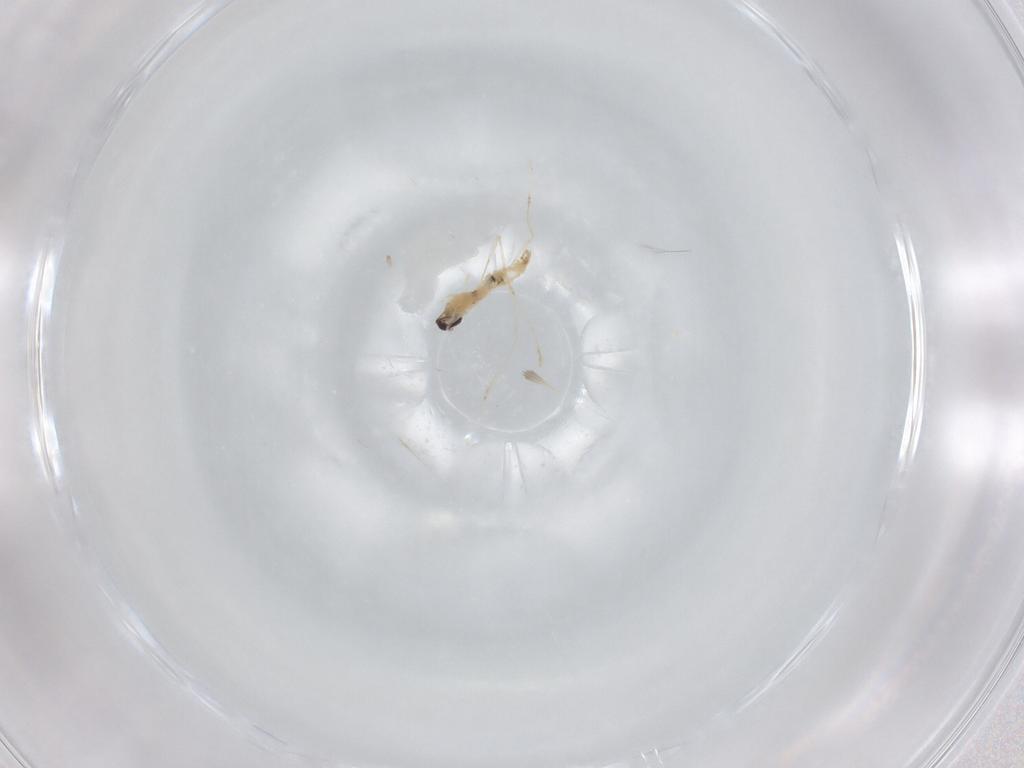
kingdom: Animalia
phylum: Arthropoda
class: Insecta
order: Diptera
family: Cecidomyiidae
